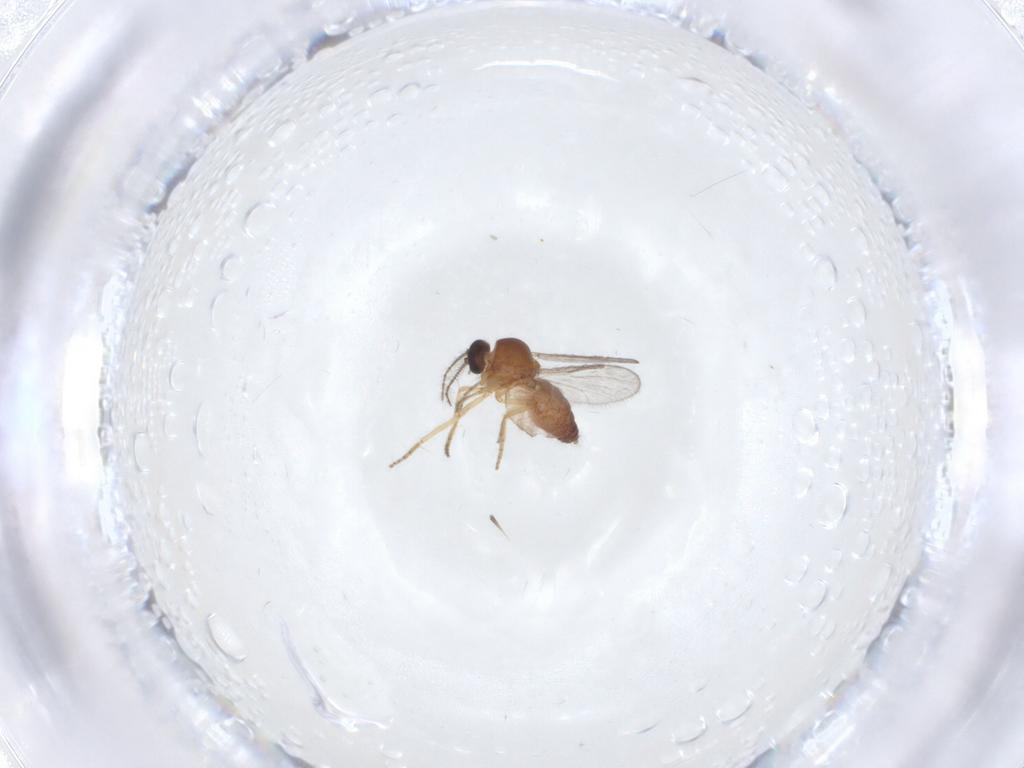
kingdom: Animalia
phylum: Arthropoda
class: Insecta
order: Diptera
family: Ceratopogonidae
